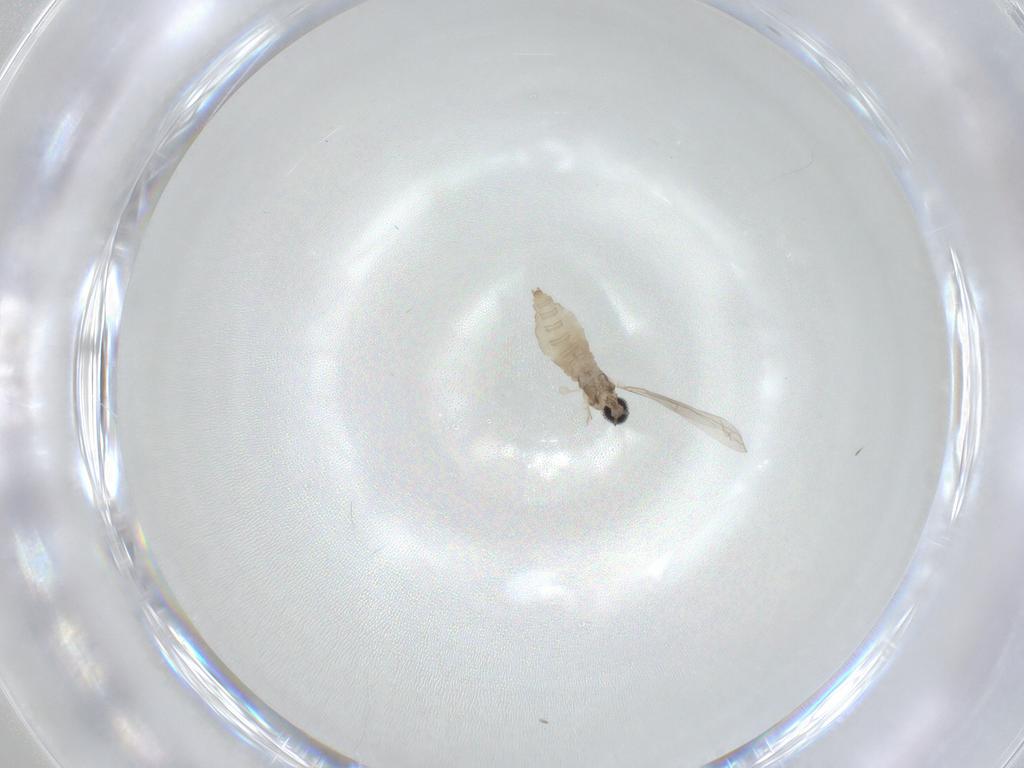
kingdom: Animalia
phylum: Arthropoda
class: Insecta
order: Diptera
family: Cecidomyiidae
